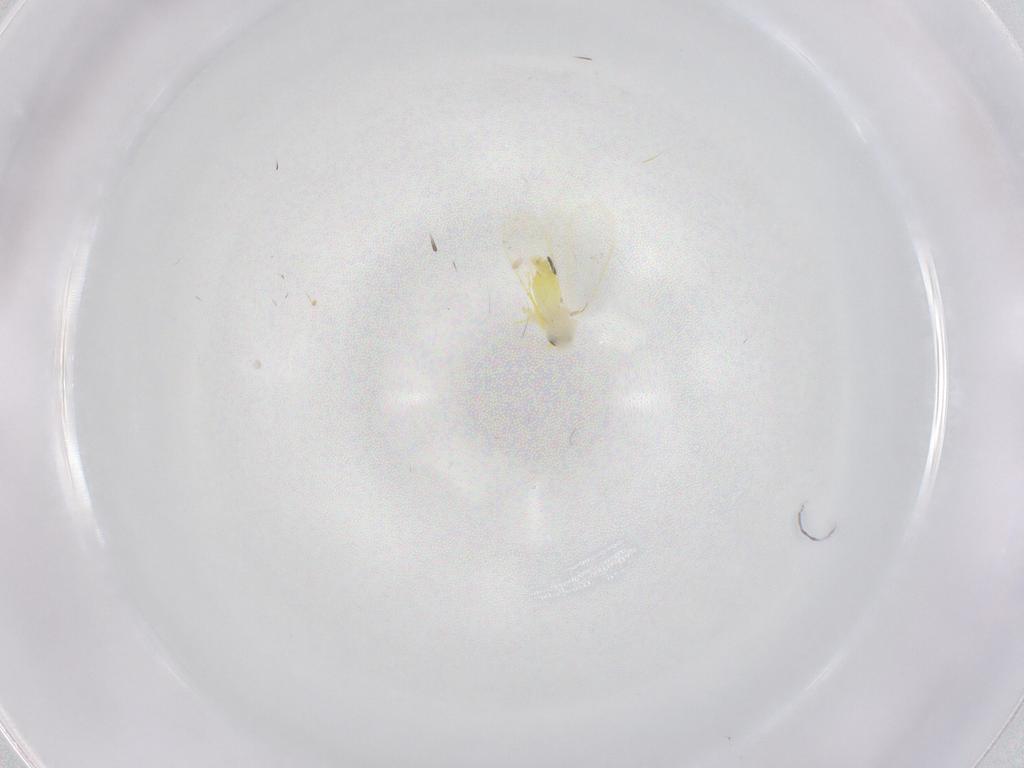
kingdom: Animalia
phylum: Arthropoda
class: Insecta
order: Hemiptera
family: Aleyrodidae
